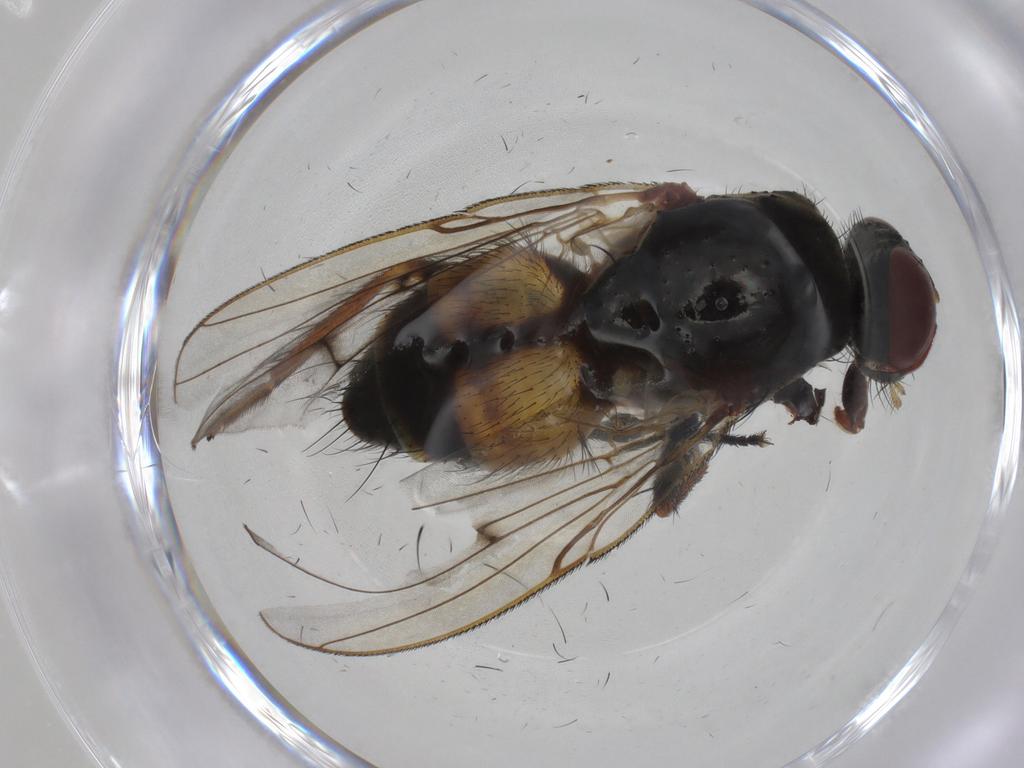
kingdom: Animalia
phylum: Arthropoda
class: Insecta
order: Diptera
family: Muscidae
